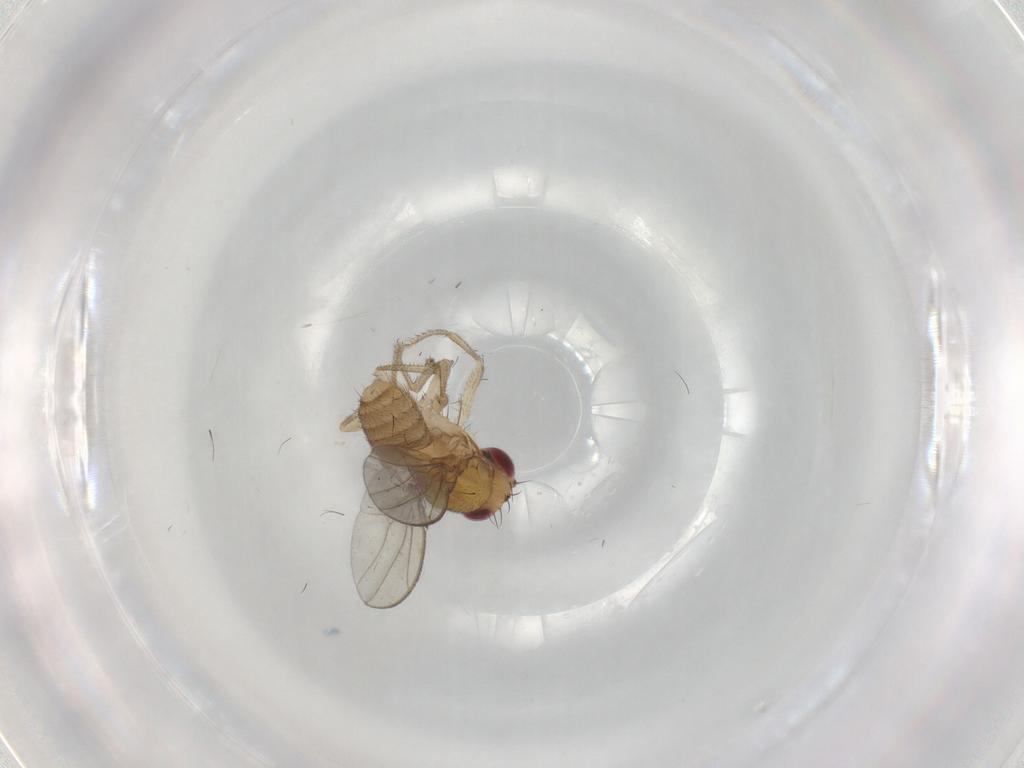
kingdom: Animalia
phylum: Arthropoda
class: Insecta
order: Diptera
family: Drosophilidae
